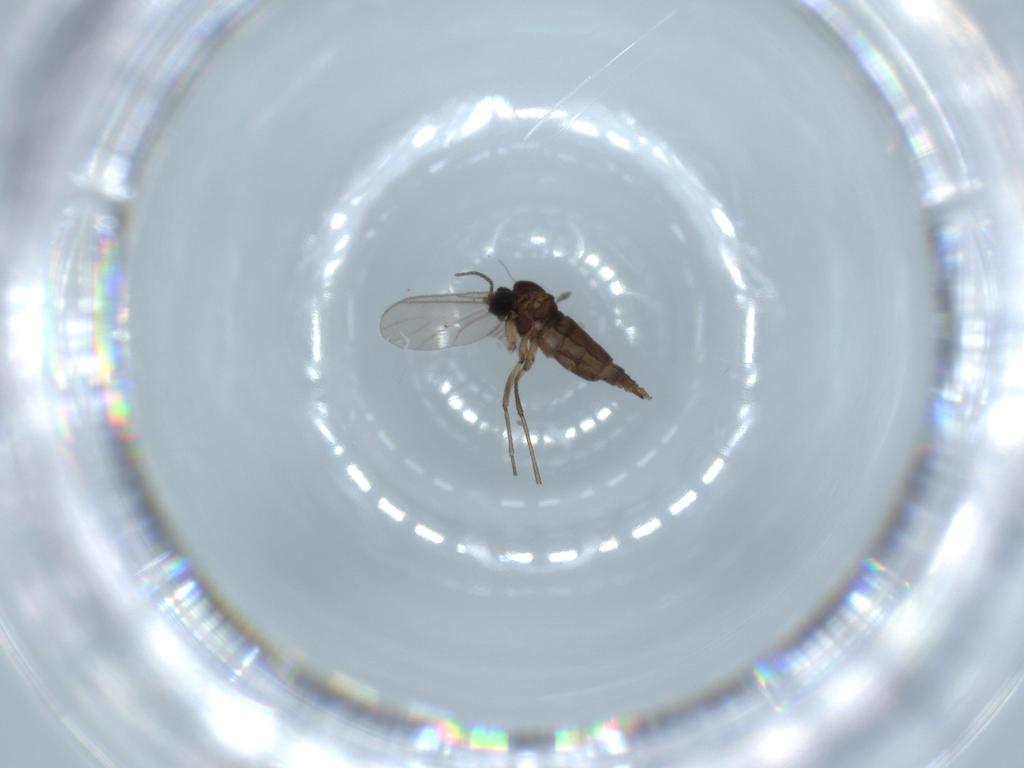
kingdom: Animalia
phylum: Arthropoda
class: Insecta
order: Diptera
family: Sciaridae
